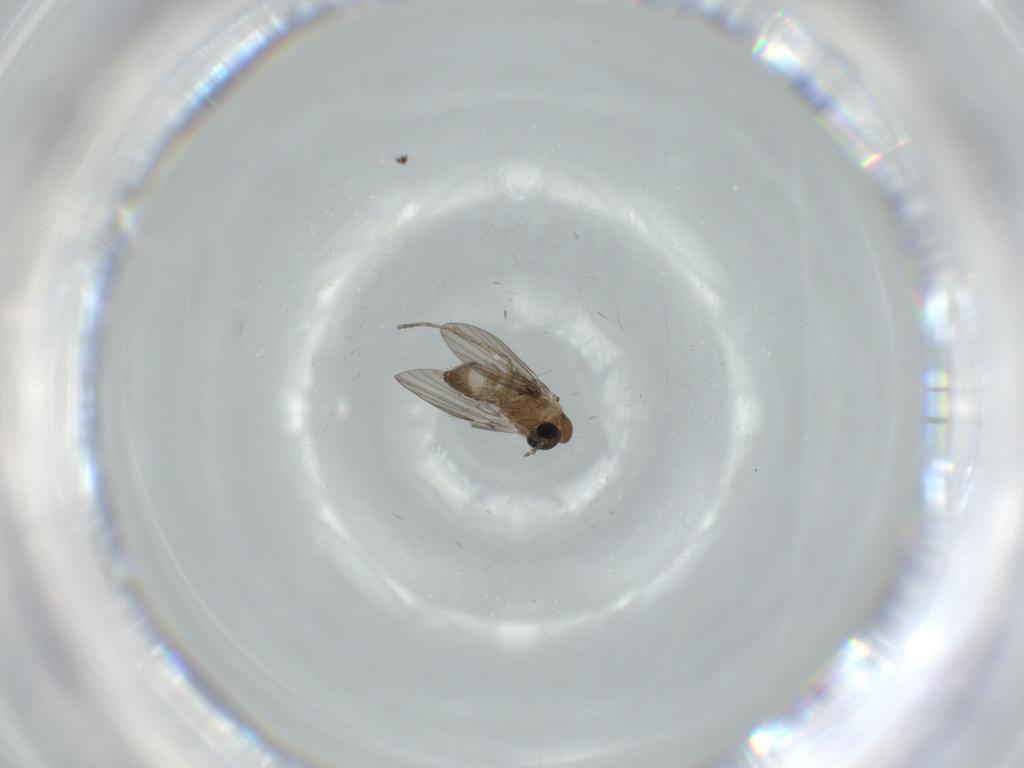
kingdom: Animalia
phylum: Arthropoda
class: Insecta
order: Diptera
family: Psychodidae
